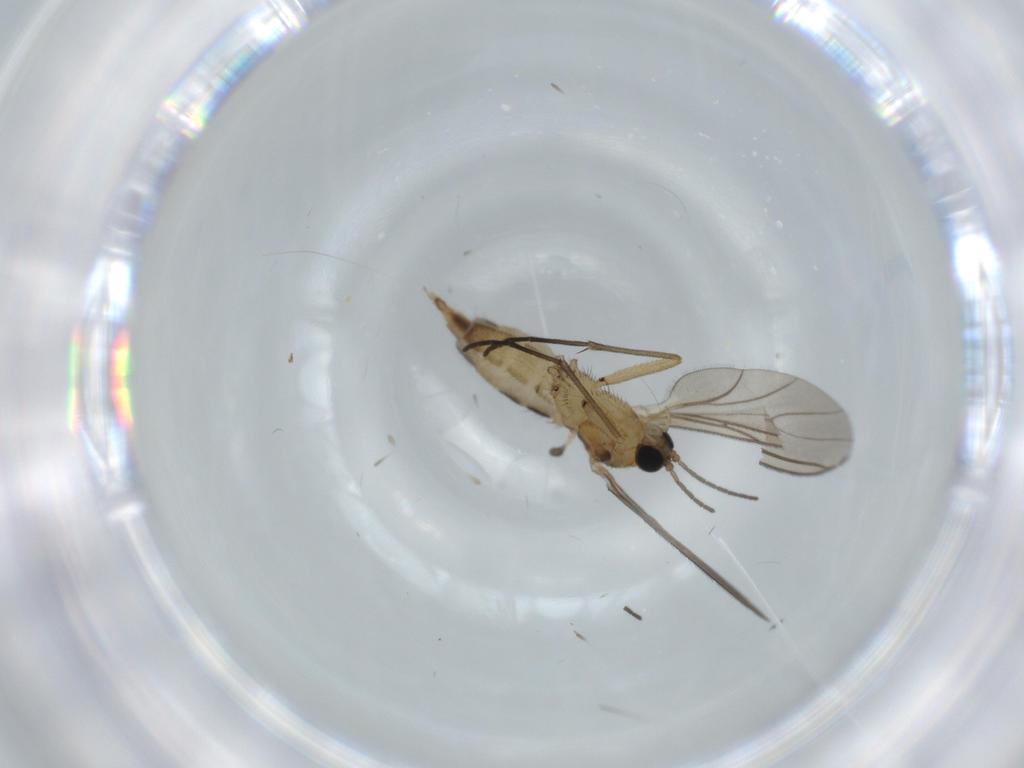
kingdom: Animalia
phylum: Arthropoda
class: Insecta
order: Diptera
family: Sciaridae
